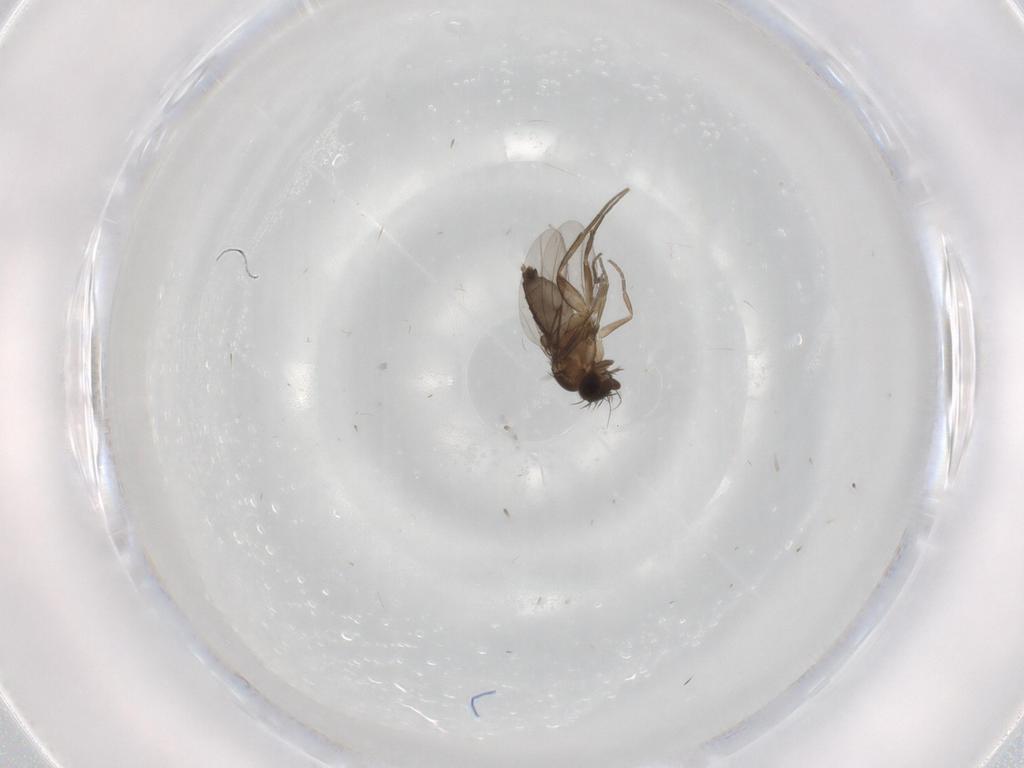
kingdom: Animalia
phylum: Arthropoda
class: Insecta
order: Diptera
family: Phoridae
